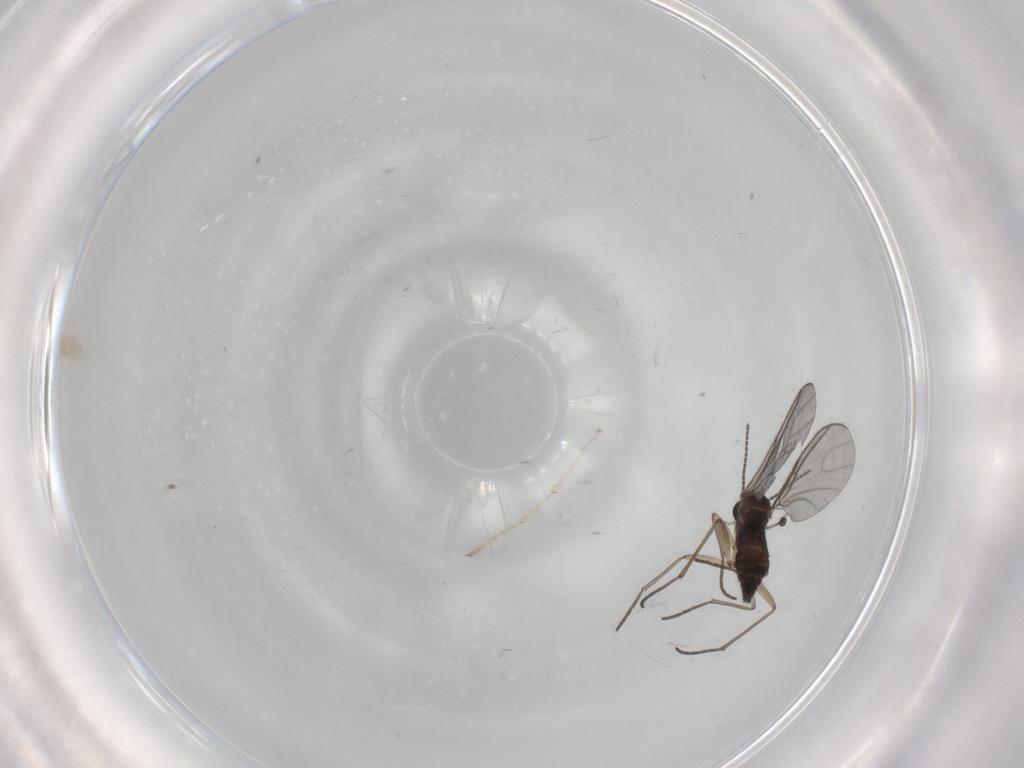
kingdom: Animalia
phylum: Arthropoda
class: Insecta
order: Diptera
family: Sciaridae
